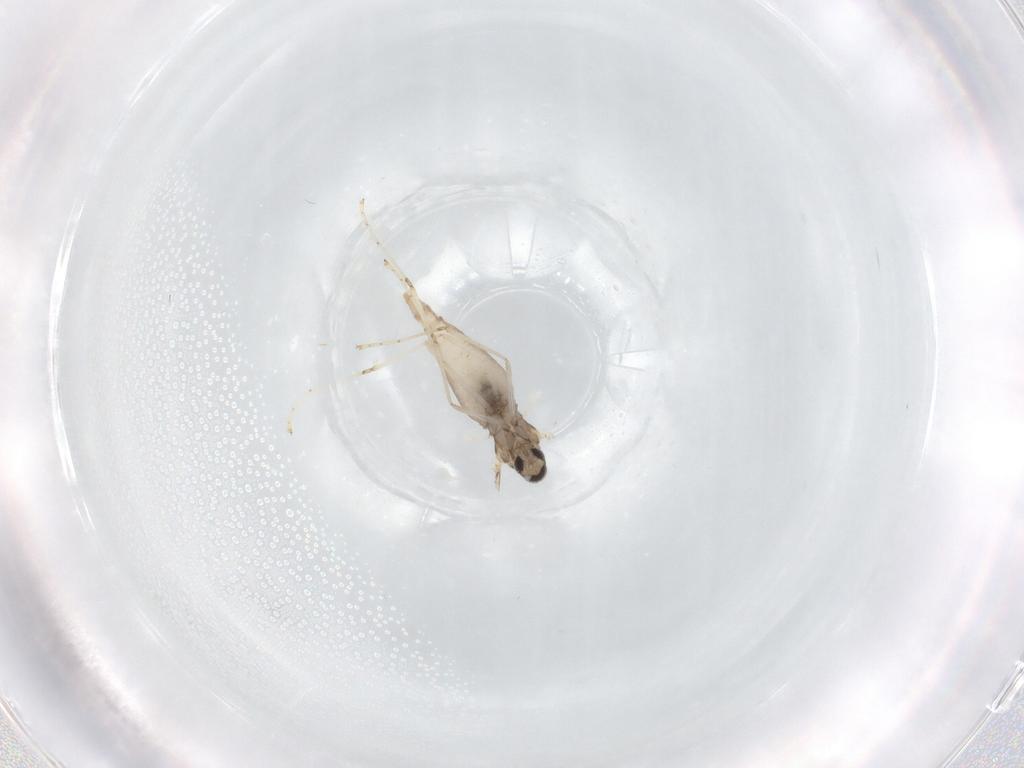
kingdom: Animalia
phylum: Arthropoda
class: Insecta
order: Diptera
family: Cecidomyiidae
